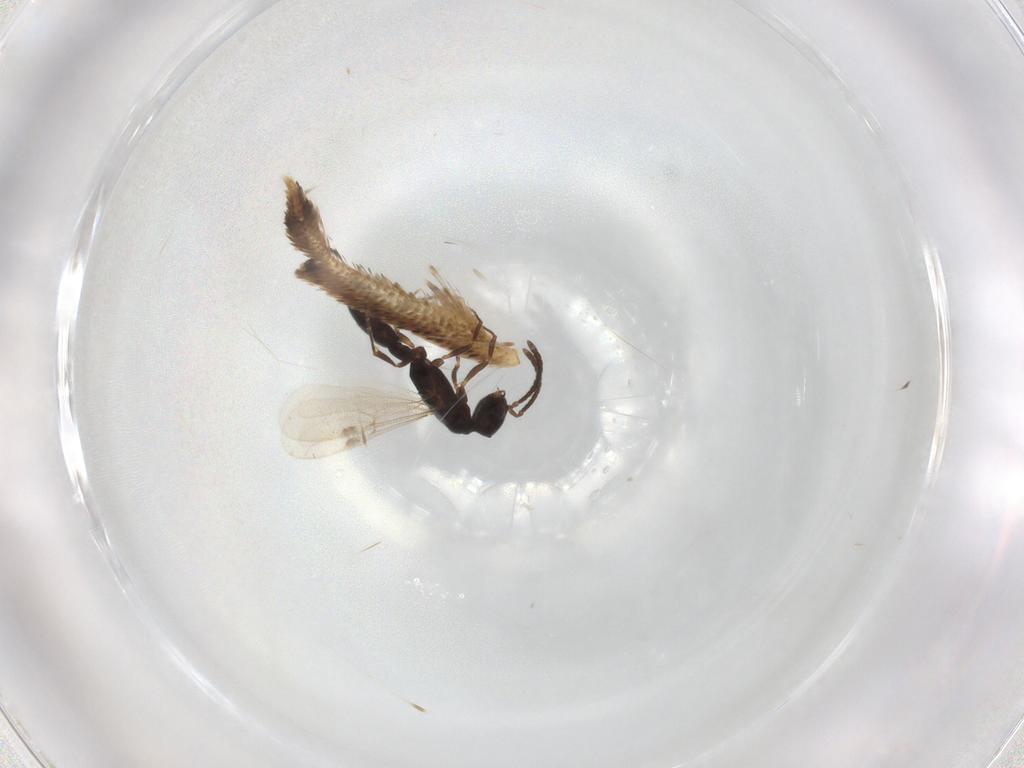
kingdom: Animalia
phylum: Arthropoda
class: Insecta
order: Hymenoptera
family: Formicidae
